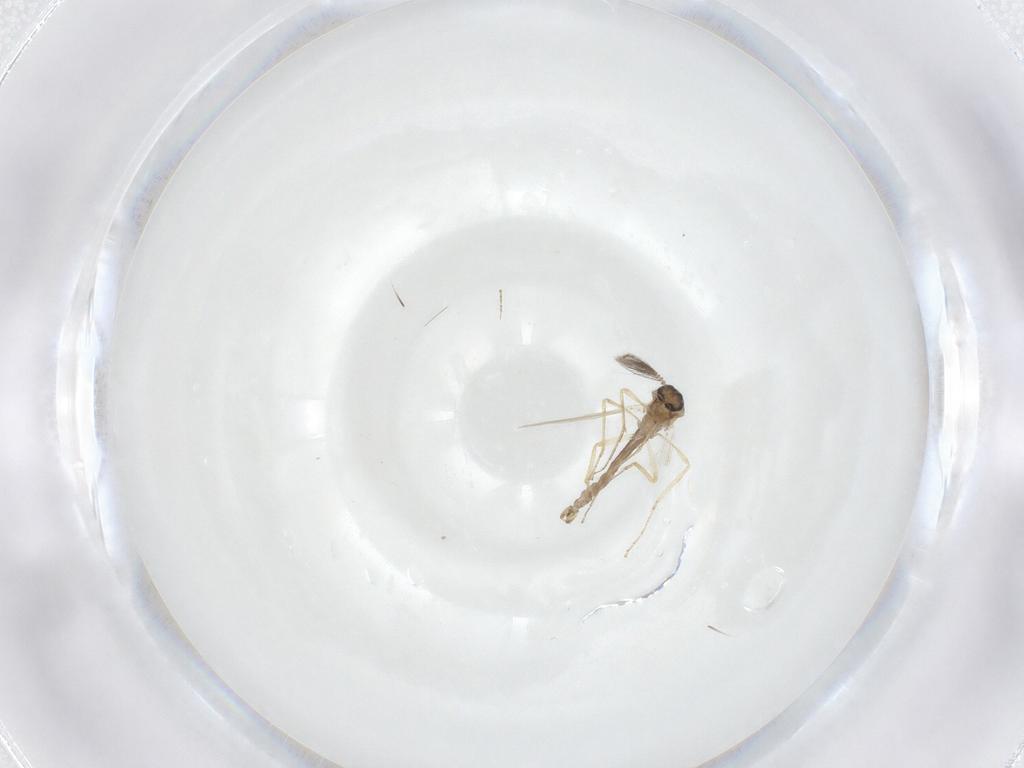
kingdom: Animalia
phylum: Arthropoda
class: Insecta
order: Diptera
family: Ceratopogonidae
